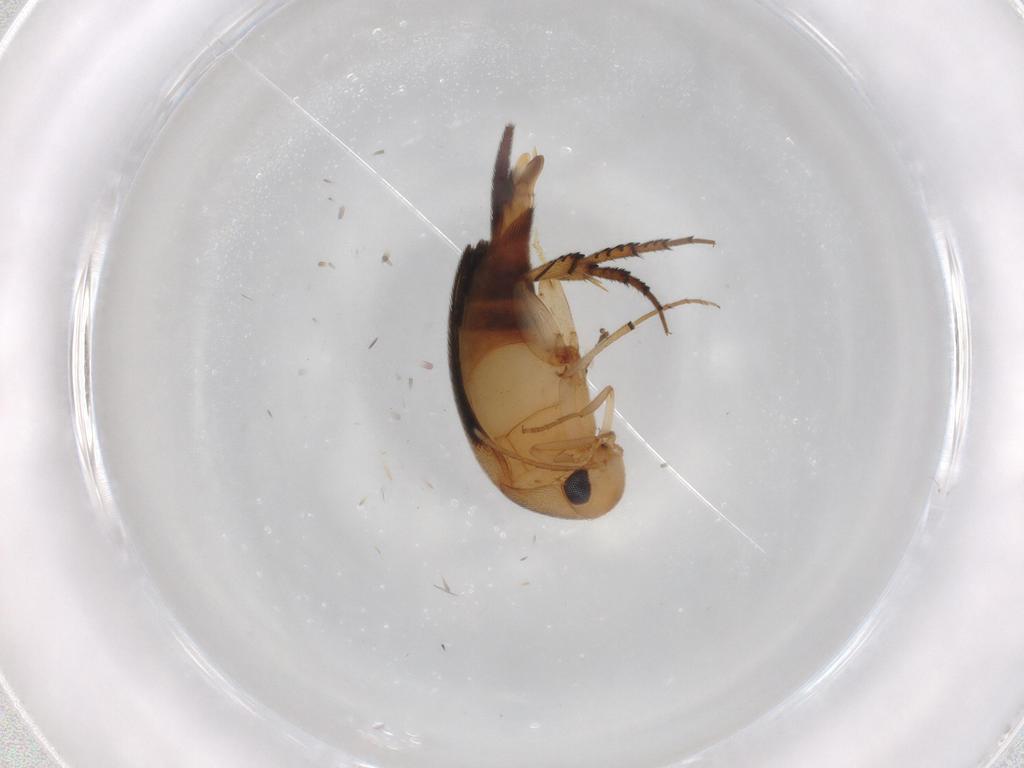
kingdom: Animalia
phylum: Arthropoda
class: Insecta
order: Coleoptera
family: Mordellidae
